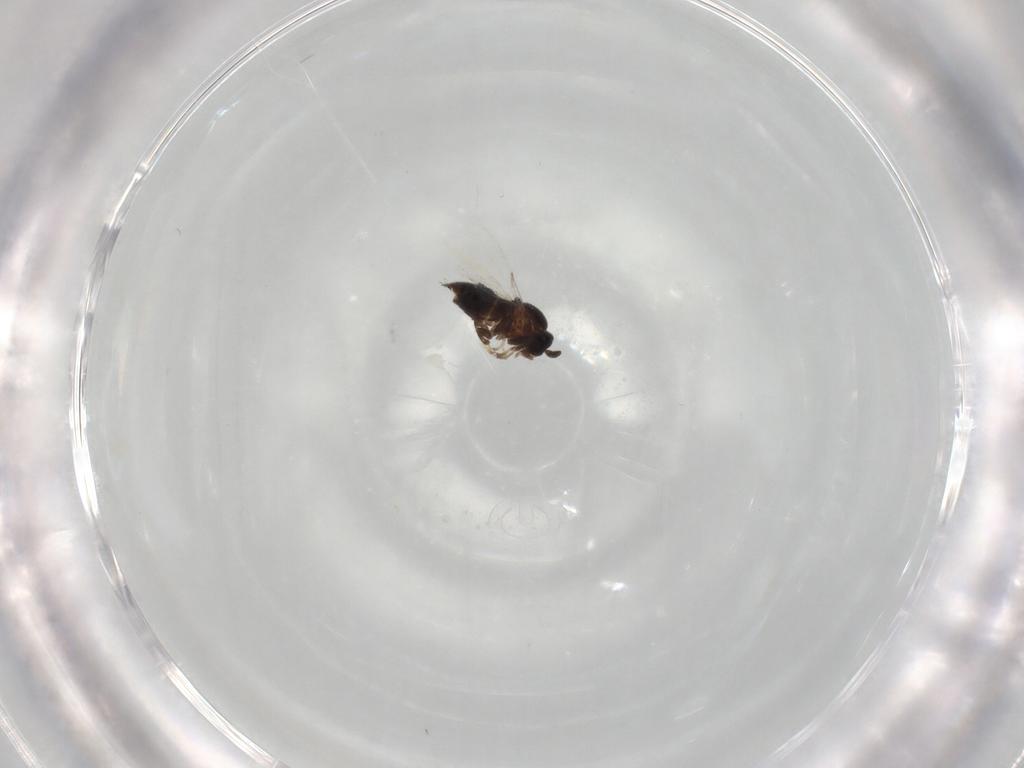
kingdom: Animalia
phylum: Arthropoda
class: Insecta
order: Diptera
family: Scatopsidae
